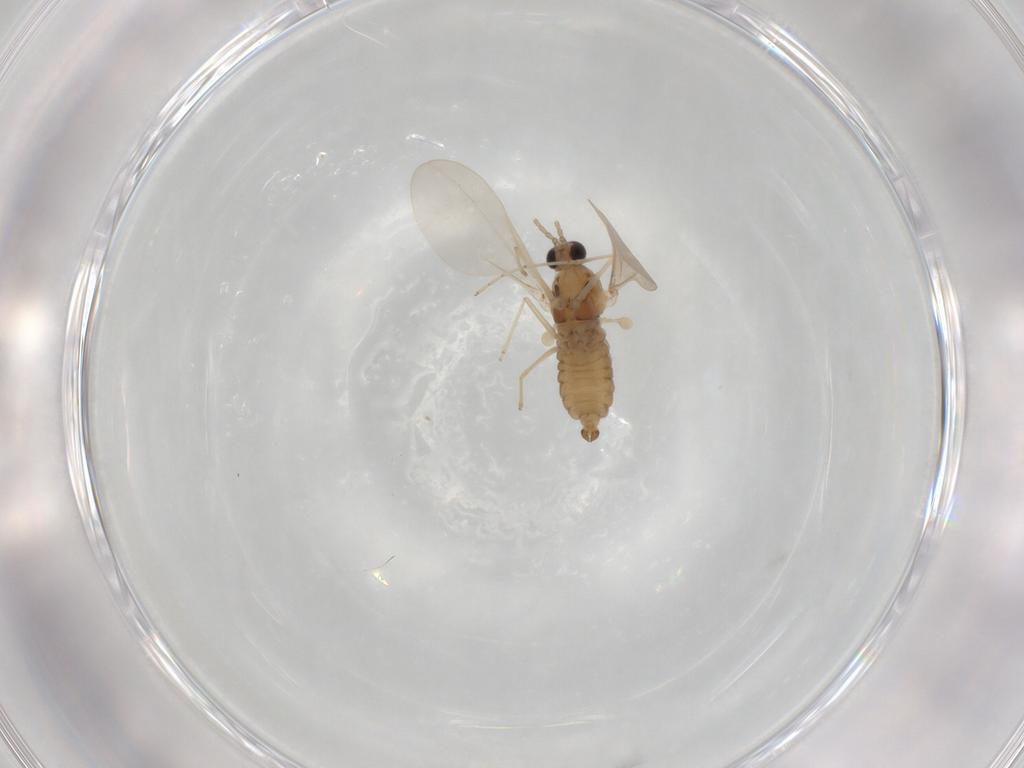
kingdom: Animalia
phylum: Arthropoda
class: Insecta
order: Diptera
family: Cecidomyiidae
